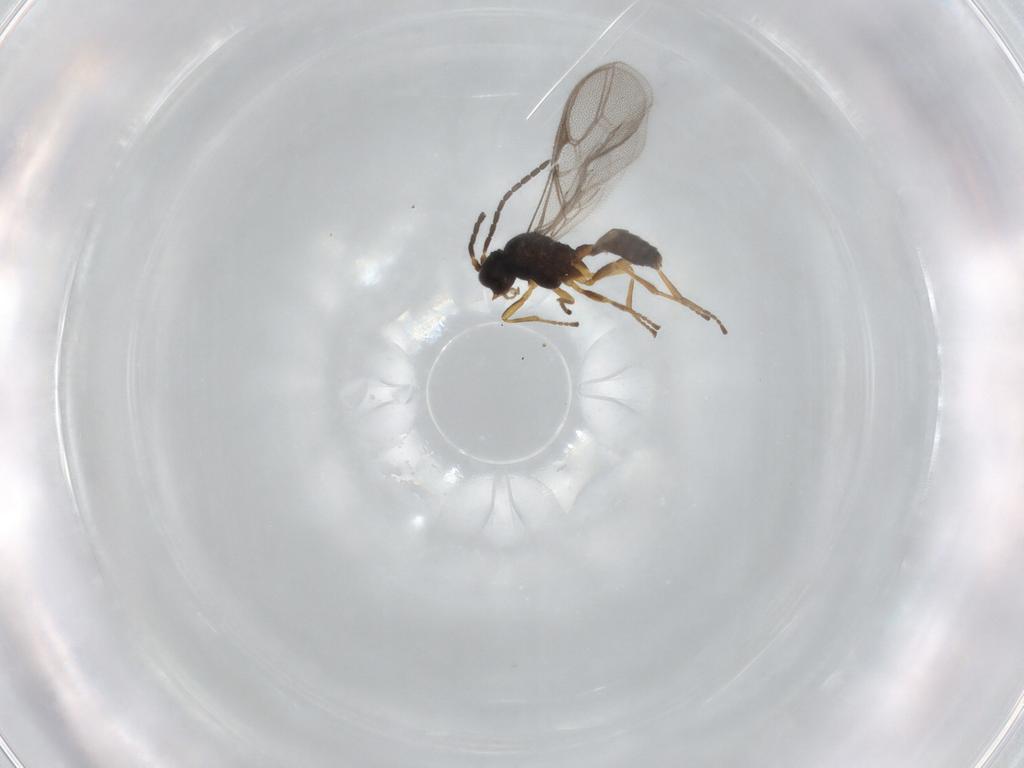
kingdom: Animalia
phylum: Arthropoda
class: Insecta
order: Hymenoptera
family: Braconidae
